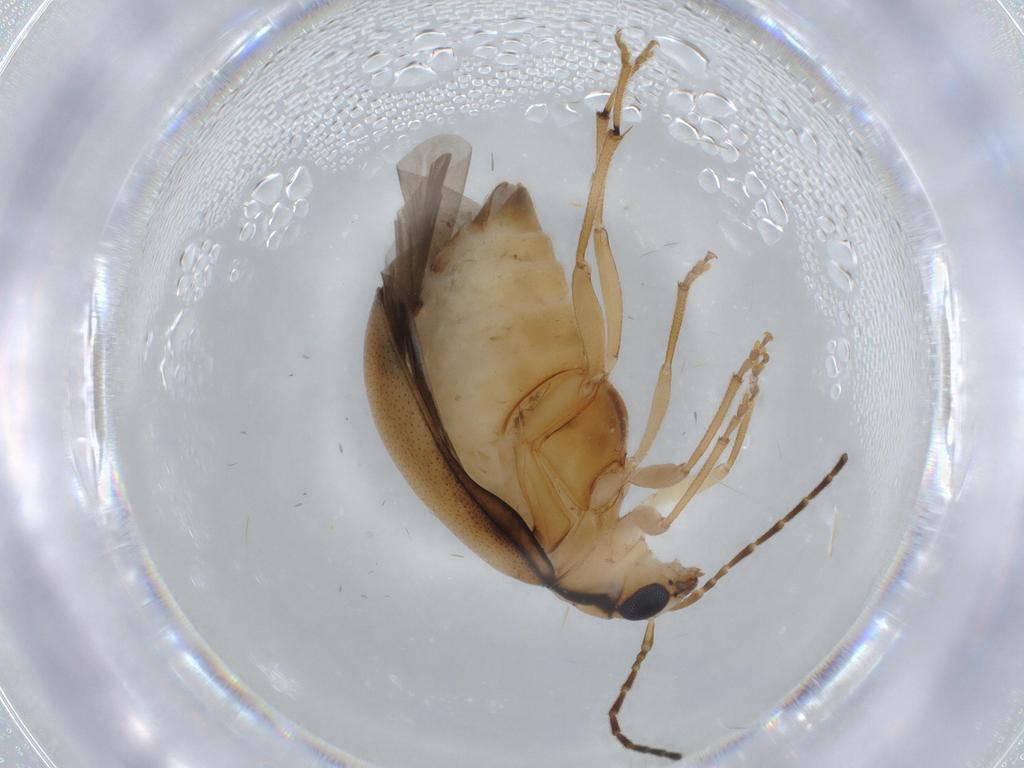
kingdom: Animalia
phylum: Arthropoda
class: Insecta
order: Coleoptera
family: Chrysomelidae
